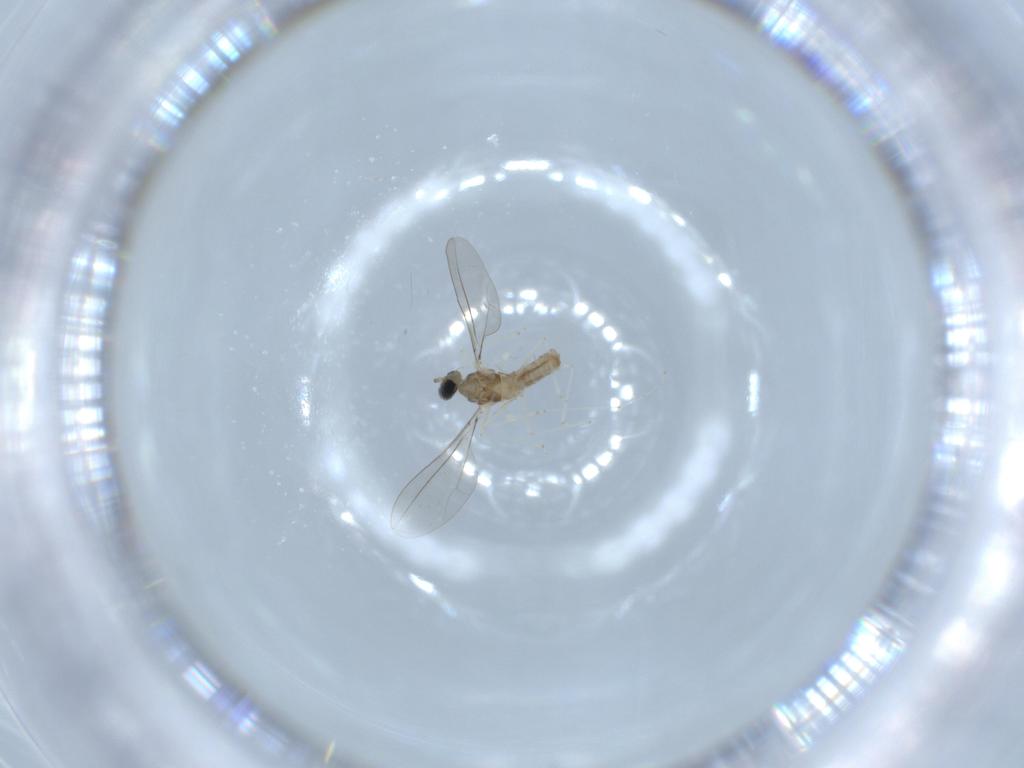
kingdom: Animalia
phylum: Arthropoda
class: Insecta
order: Diptera
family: Cecidomyiidae
